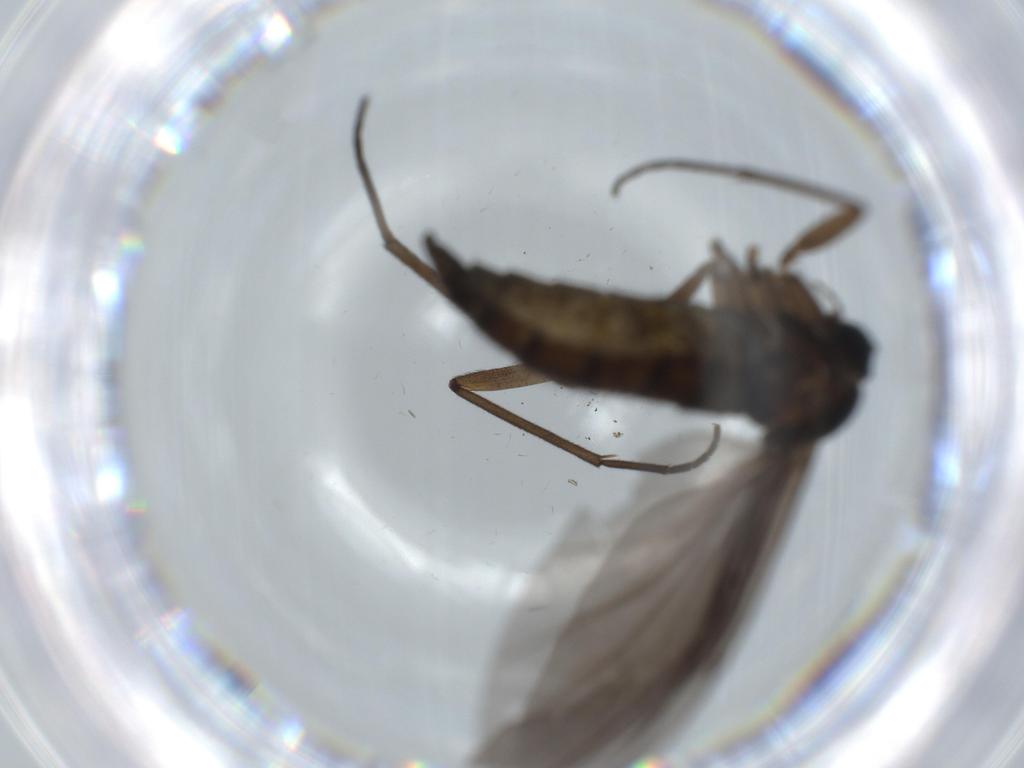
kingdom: Animalia
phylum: Arthropoda
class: Insecta
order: Diptera
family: Sciaridae
